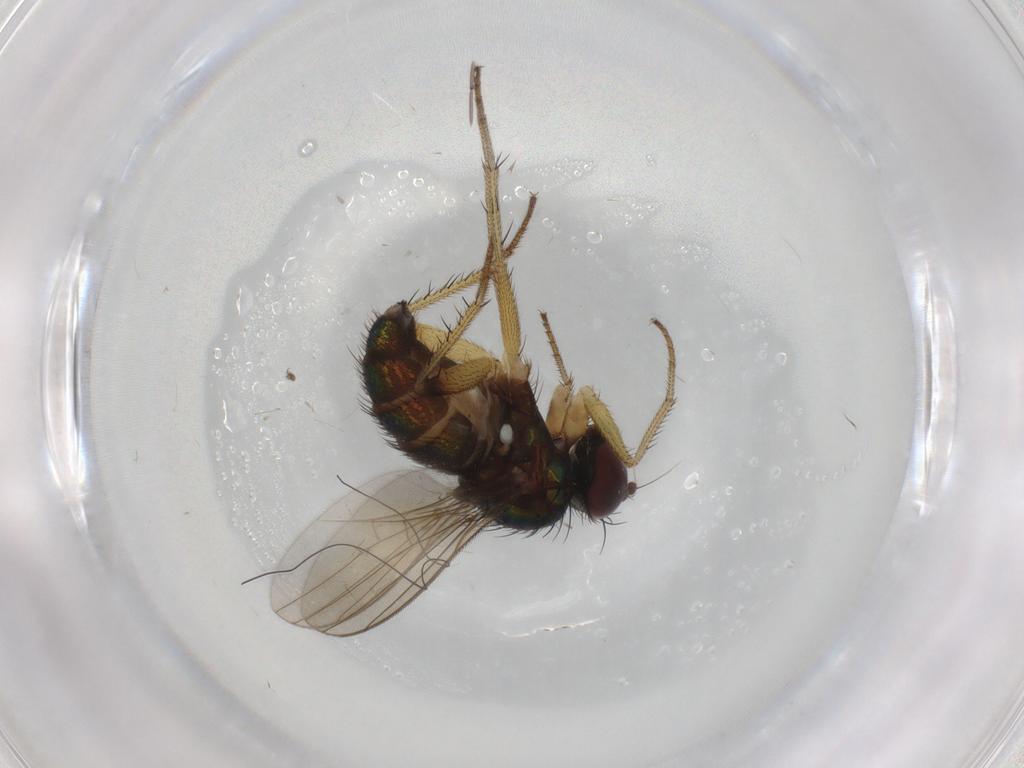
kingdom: Animalia
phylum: Arthropoda
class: Insecta
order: Diptera
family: Dolichopodidae
